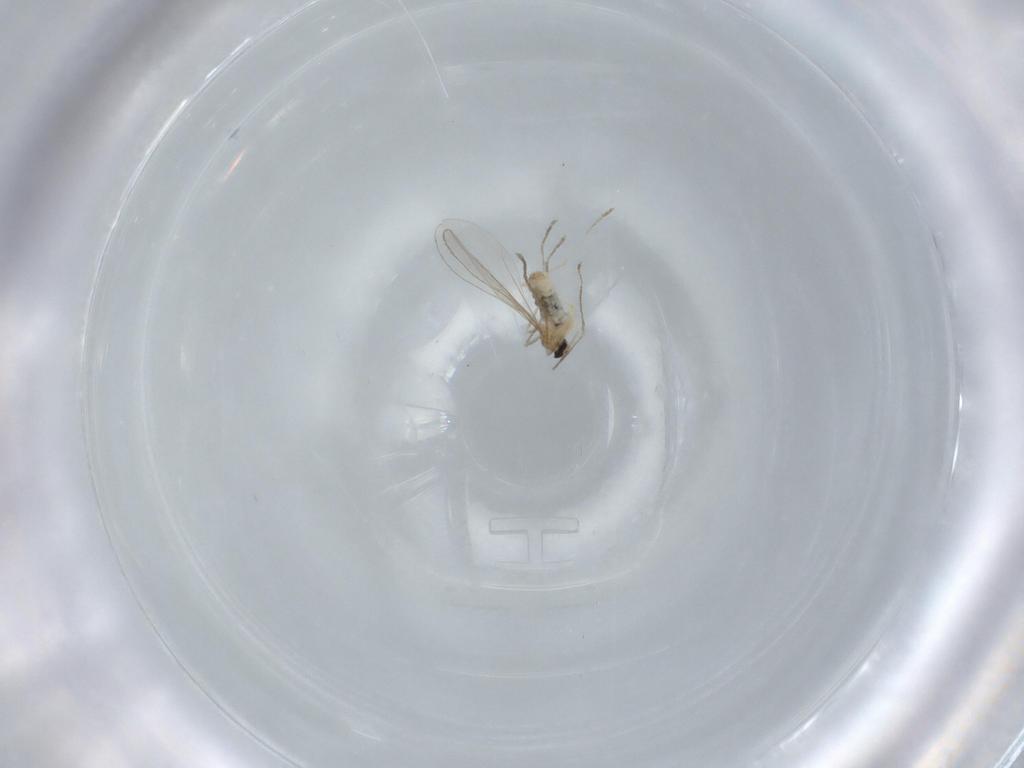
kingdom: Animalia
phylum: Arthropoda
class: Insecta
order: Diptera
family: Cecidomyiidae
